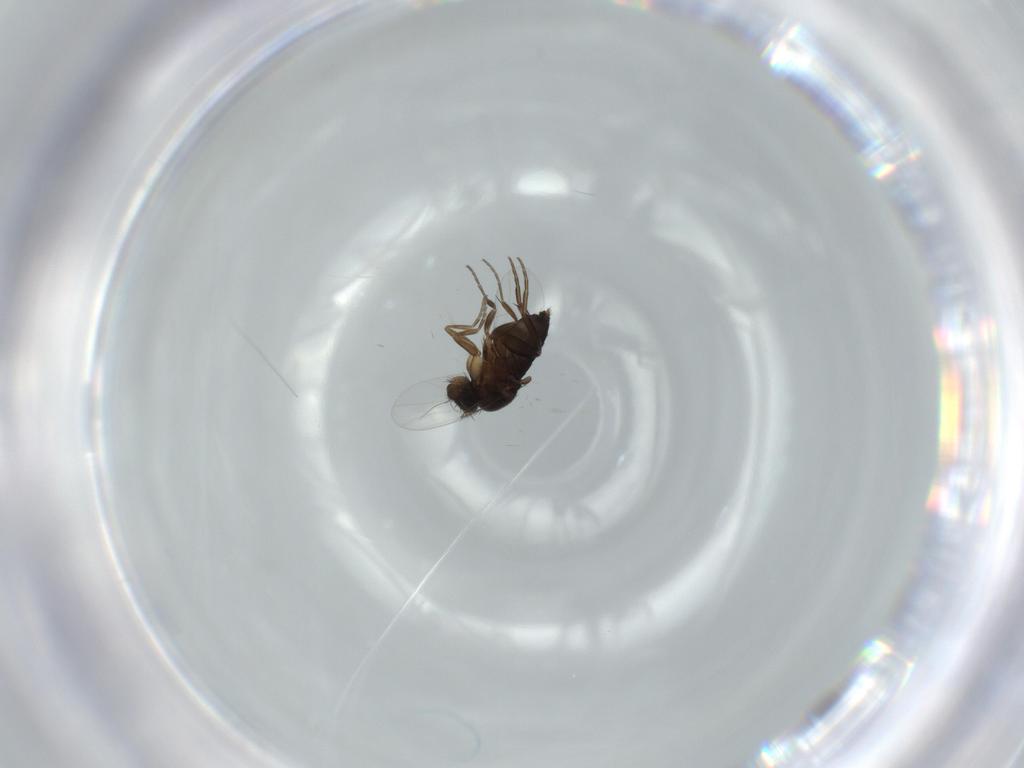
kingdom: Animalia
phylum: Arthropoda
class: Insecta
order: Diptera
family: Phoridae
